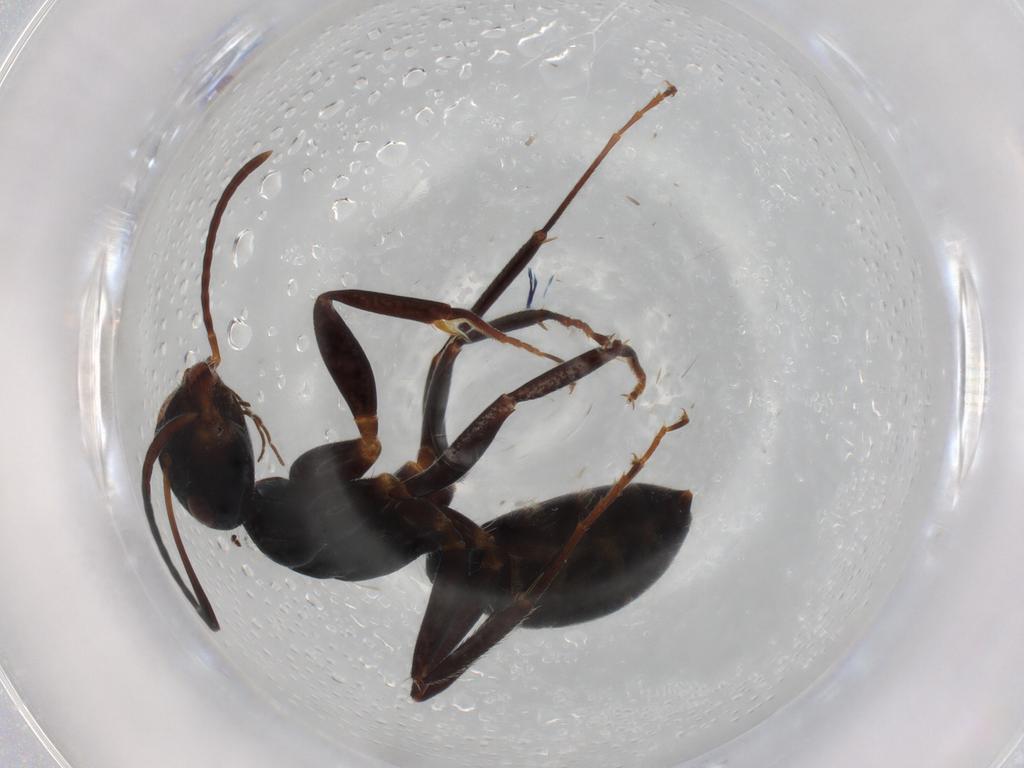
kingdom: Animalia
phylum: Arthropoda
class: Insecta
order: Hymenoptera
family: Formicidae
